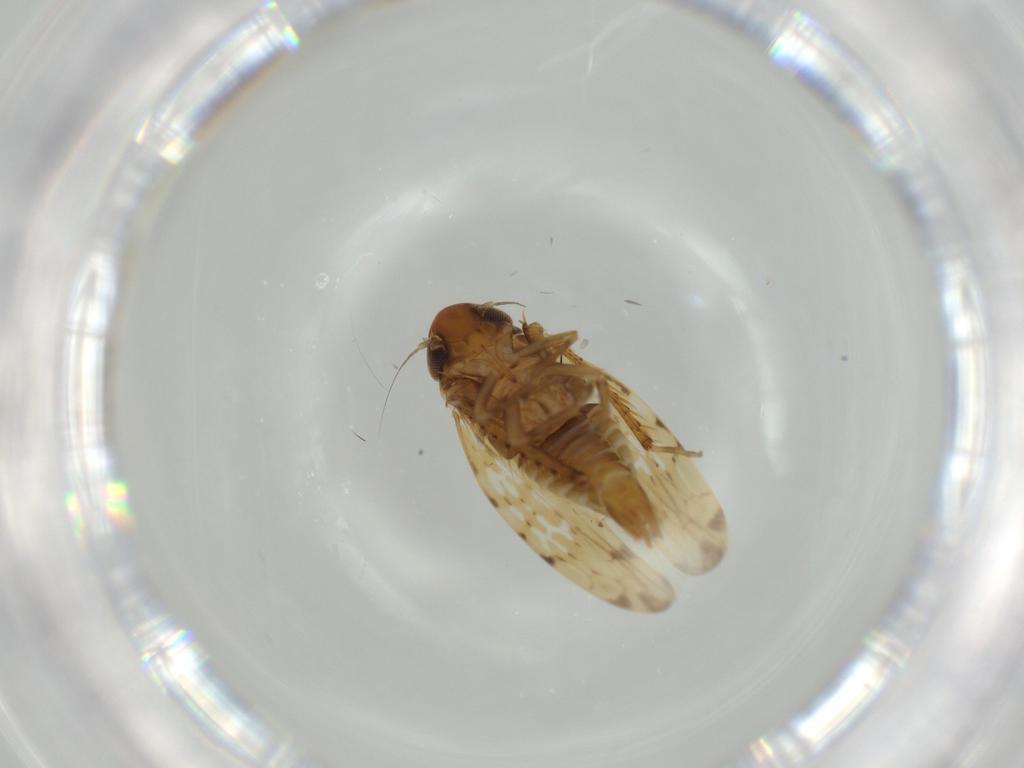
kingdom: Animalia
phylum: Arthropoda
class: Insecta
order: Hemiptera
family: Cicadellidae
